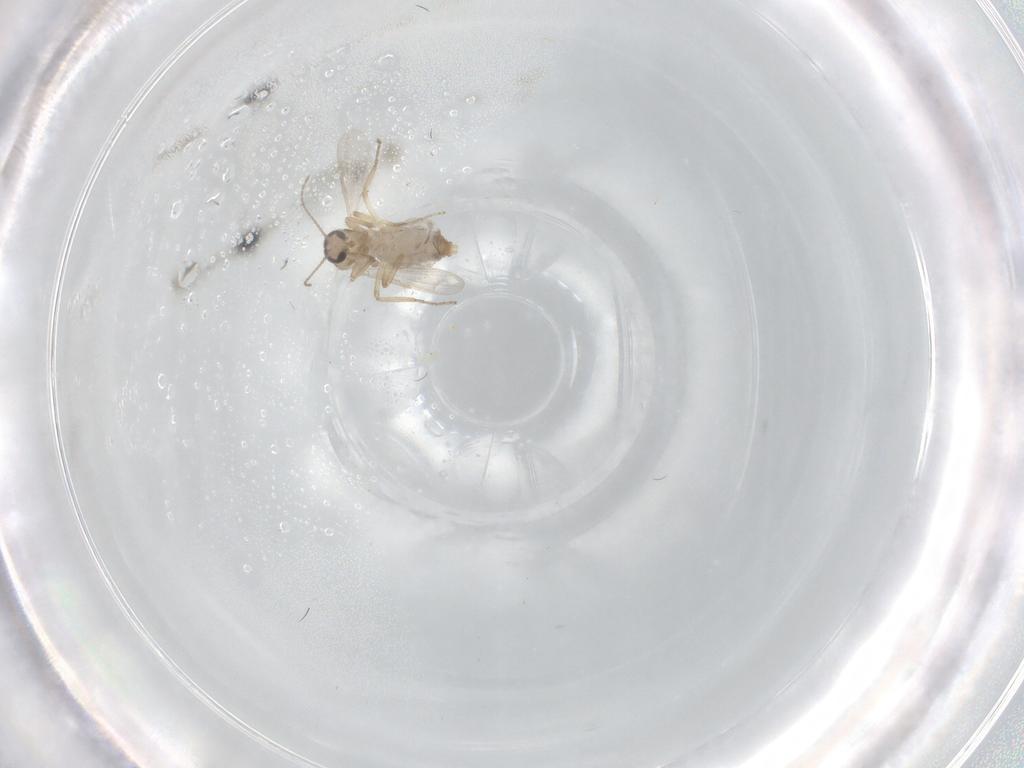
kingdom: Animalia
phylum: Arthropoda
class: Insecta
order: Diptera
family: Ceratopogonidae
